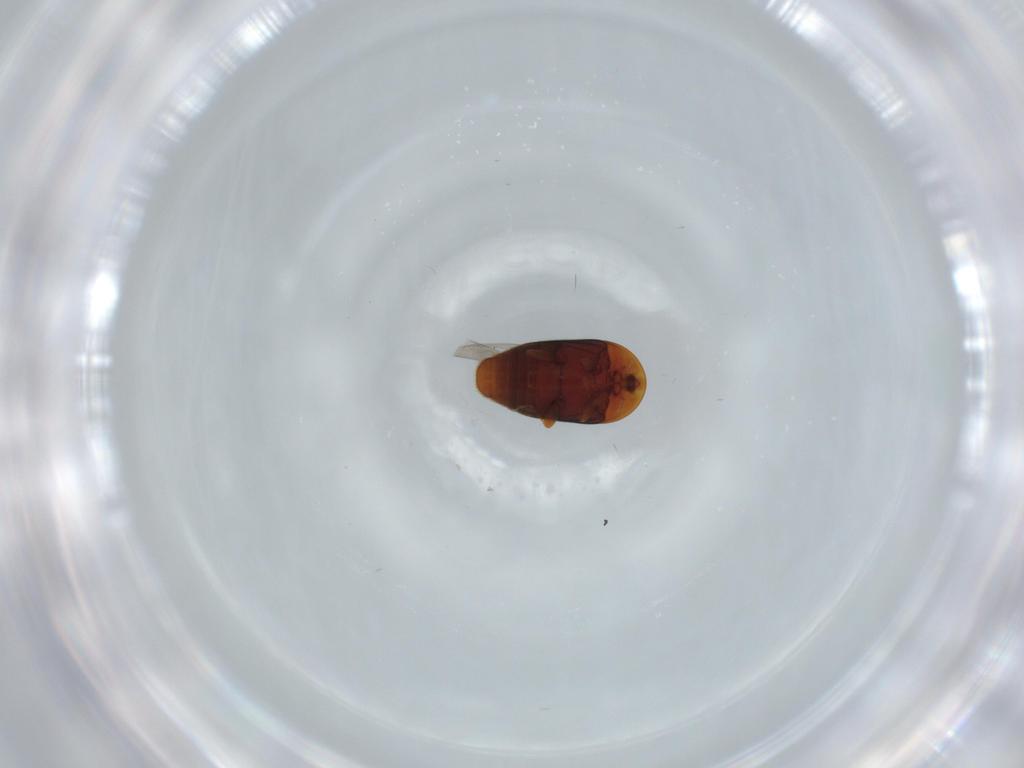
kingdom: Animalia
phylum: Arthropoda
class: Insecta
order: Coleoptera
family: Corylophidae
